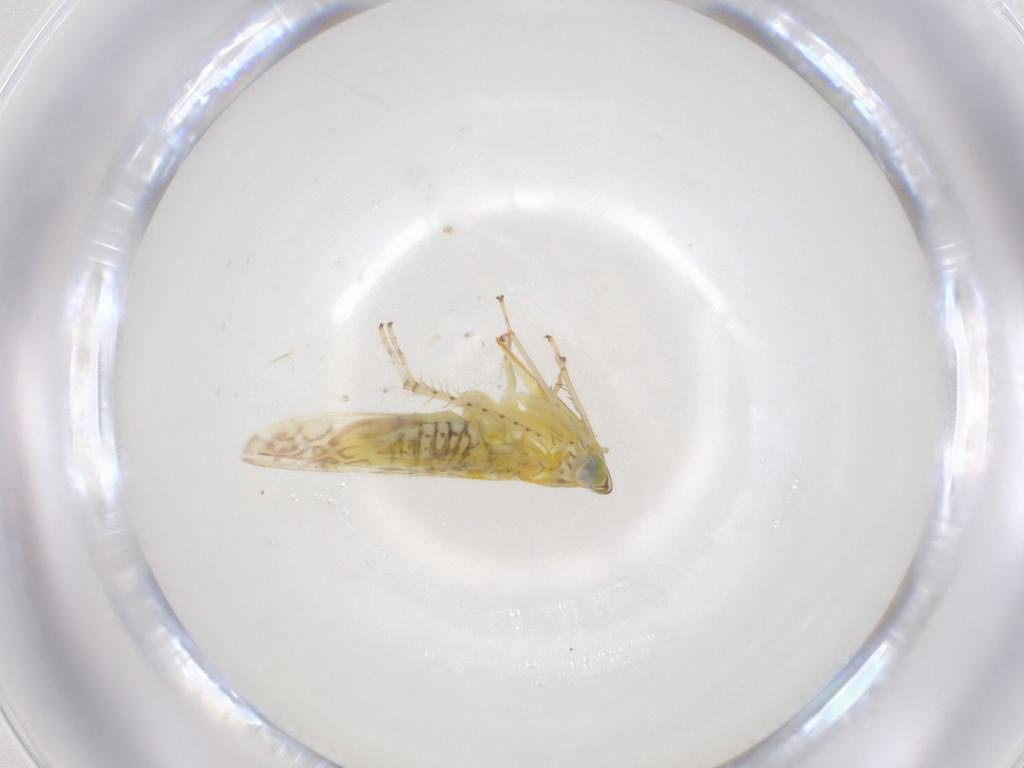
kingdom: Animalia
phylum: Arthropoda
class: Insecta
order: Hemiptera
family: Cicadellidae
